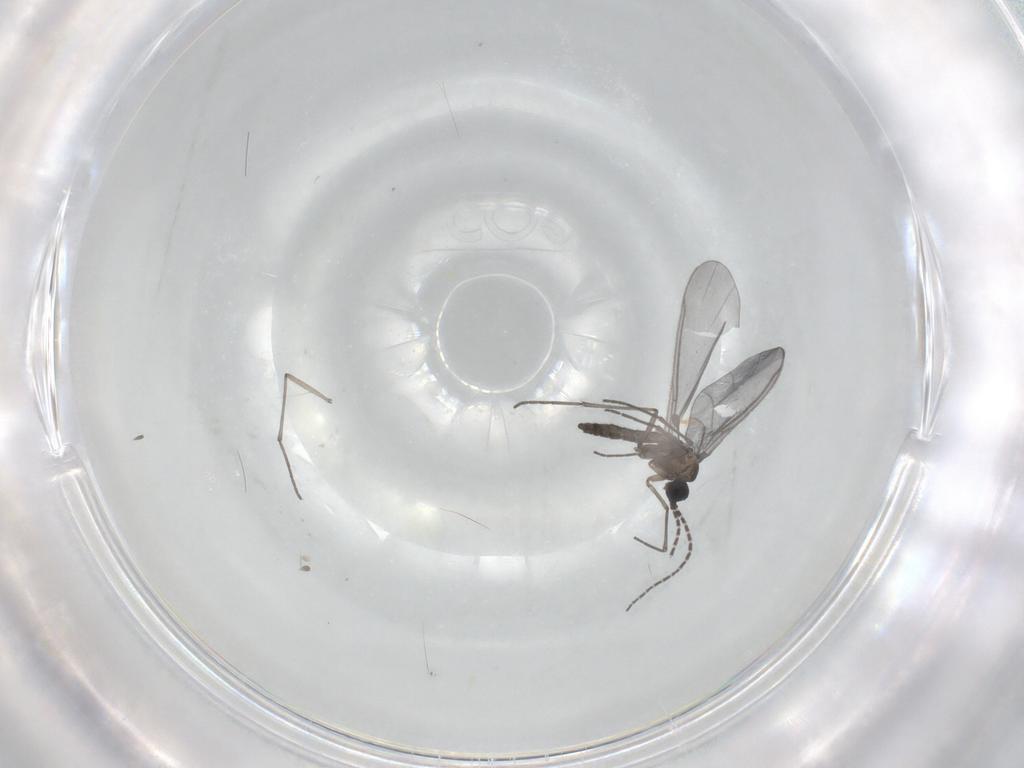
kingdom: Animalia
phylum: Arthropoda
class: Insecta
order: Diptera
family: Sciaridae
